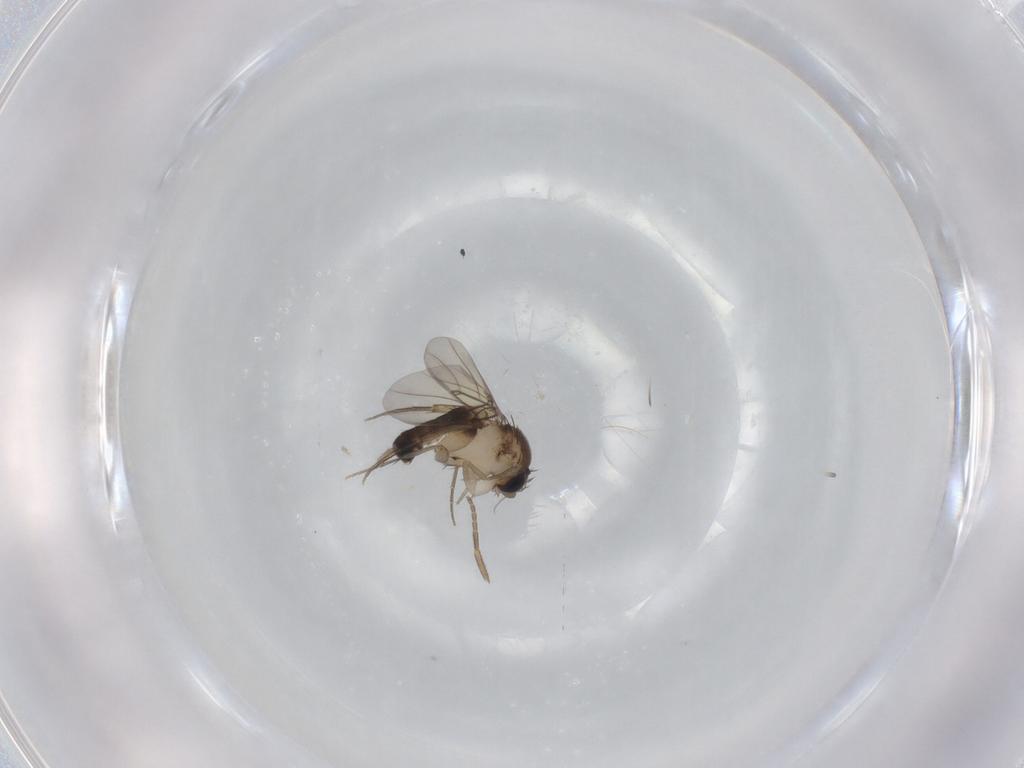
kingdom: Animalia
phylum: Arthropoda
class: Insecta
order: Diptera
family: Phoridae
